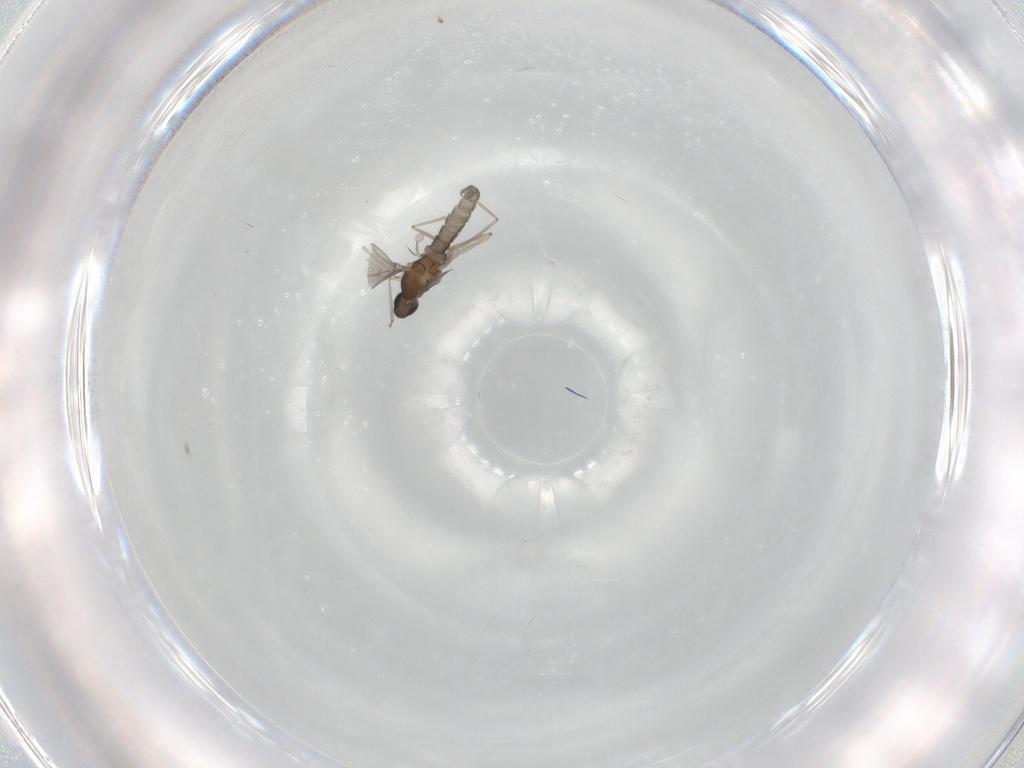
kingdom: Animalia
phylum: Arthropoda
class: Insecta
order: Diptera
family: Cecidomyiidae
